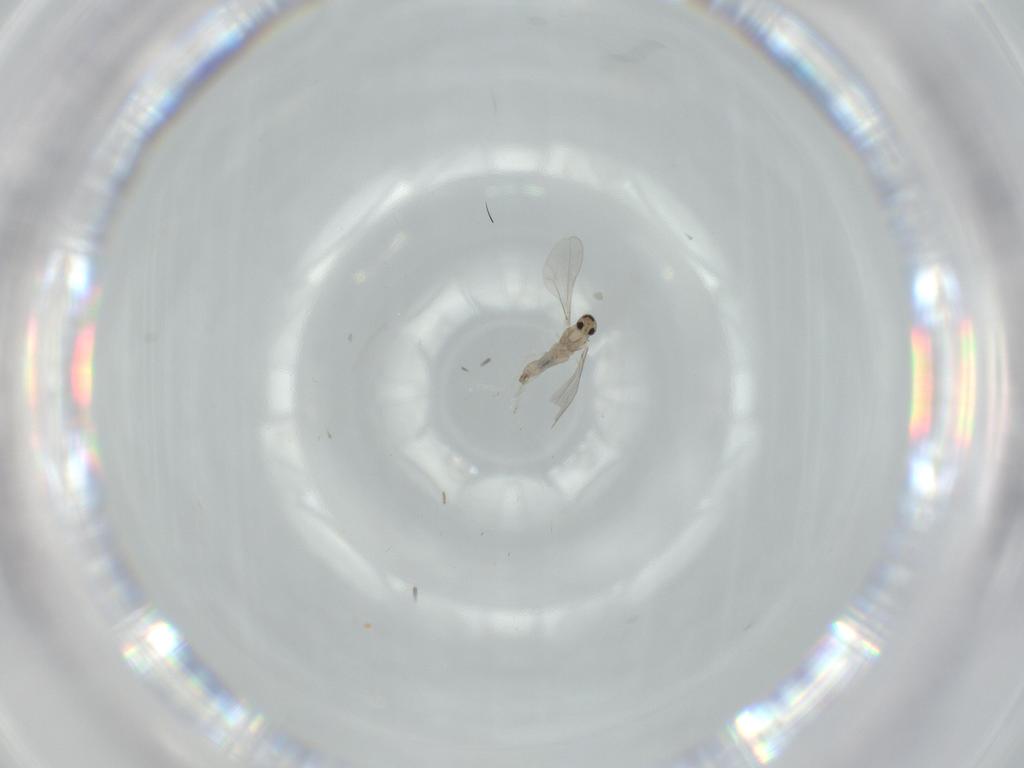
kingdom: Animalia
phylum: Arthropoda
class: Insecta
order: Diptera
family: Cecidomyiidae
